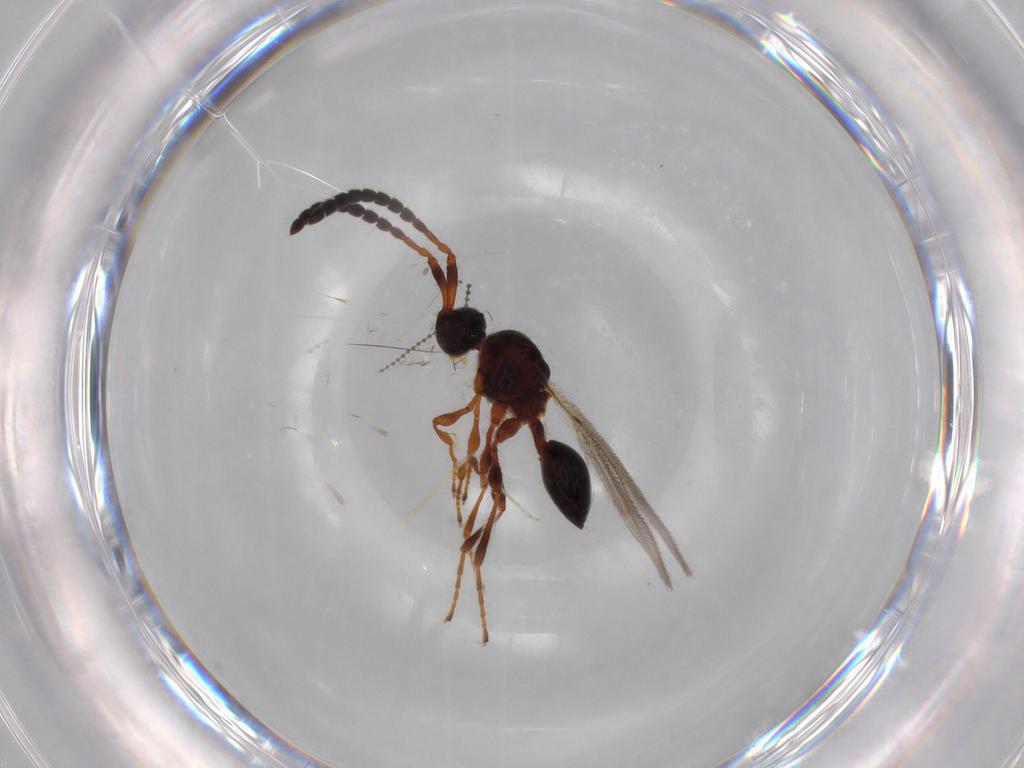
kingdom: Animalia
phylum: Arthropoda
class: Insecta
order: Hymenoptera
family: Diapriidae
